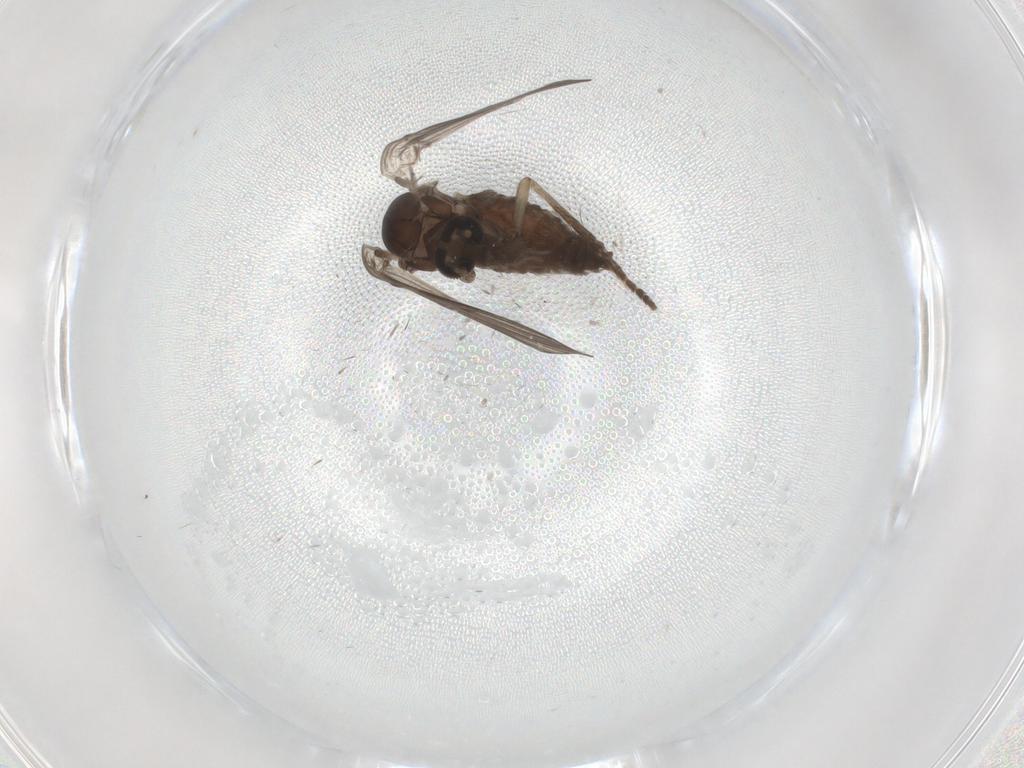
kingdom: Animalia
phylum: Arthropoda
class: Insecta
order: Diptera
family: Psychodidae
